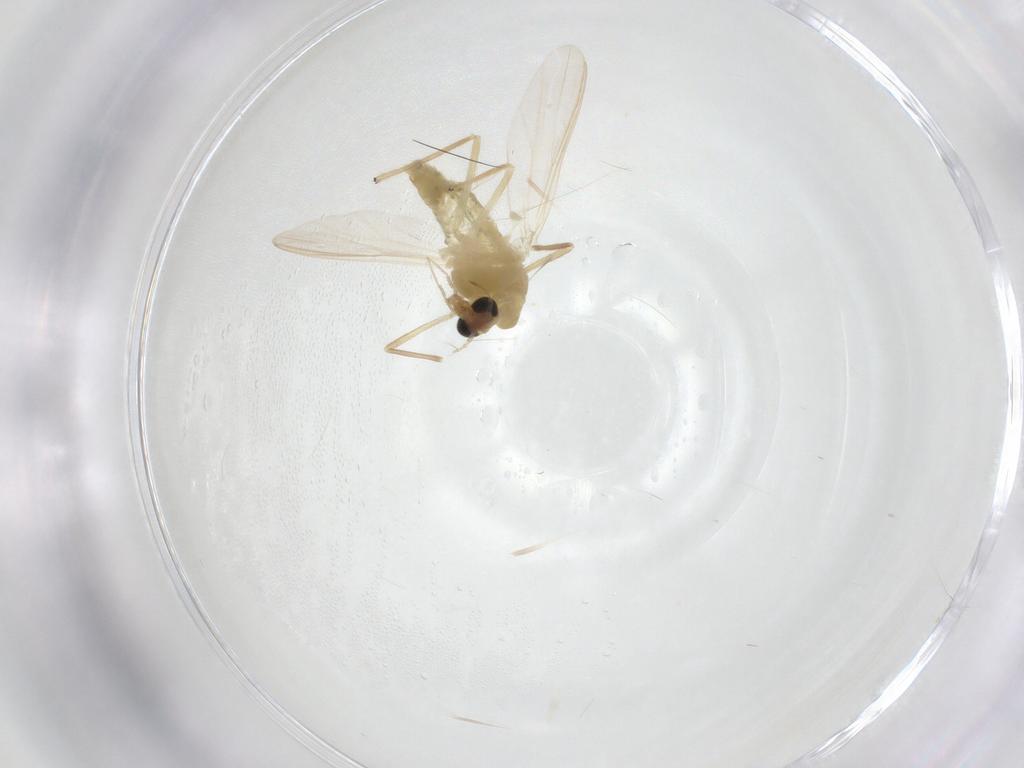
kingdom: Animalia
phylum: Arthropoda
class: Insecta
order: Diptera
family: Chironomidae
